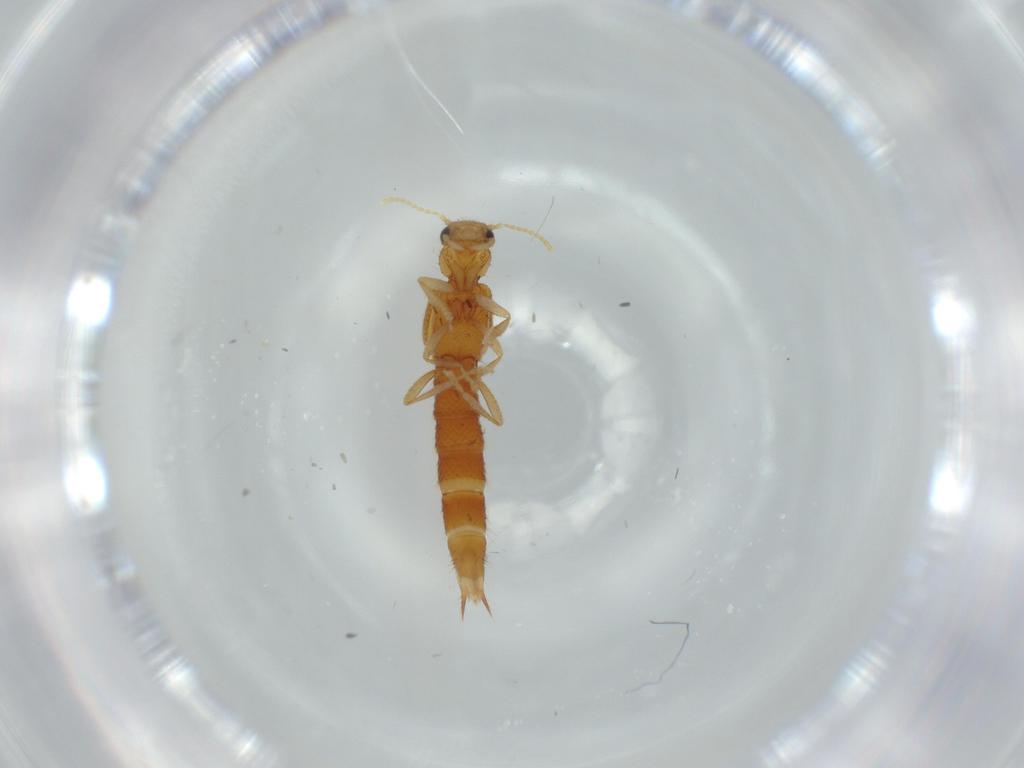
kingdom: Animalia
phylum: Arthropoda
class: Insecta
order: Coleoptera
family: Staphylinidae
